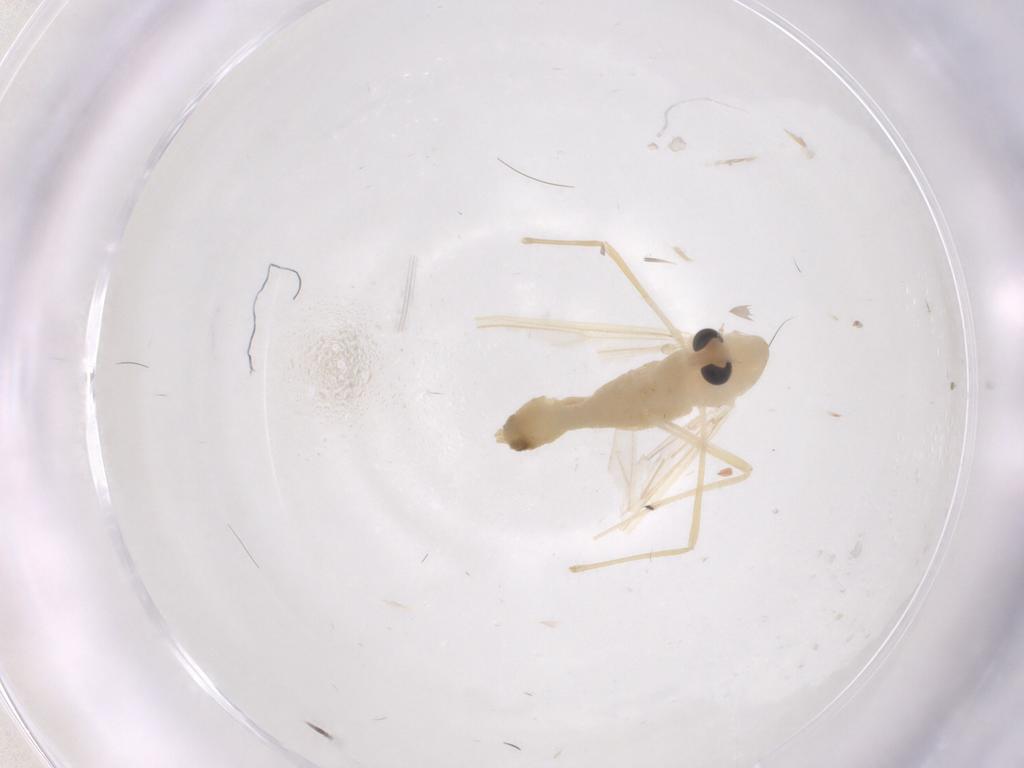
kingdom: Animalia
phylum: Arthropoda
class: Insecta
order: Diptera
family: Chironomidae
